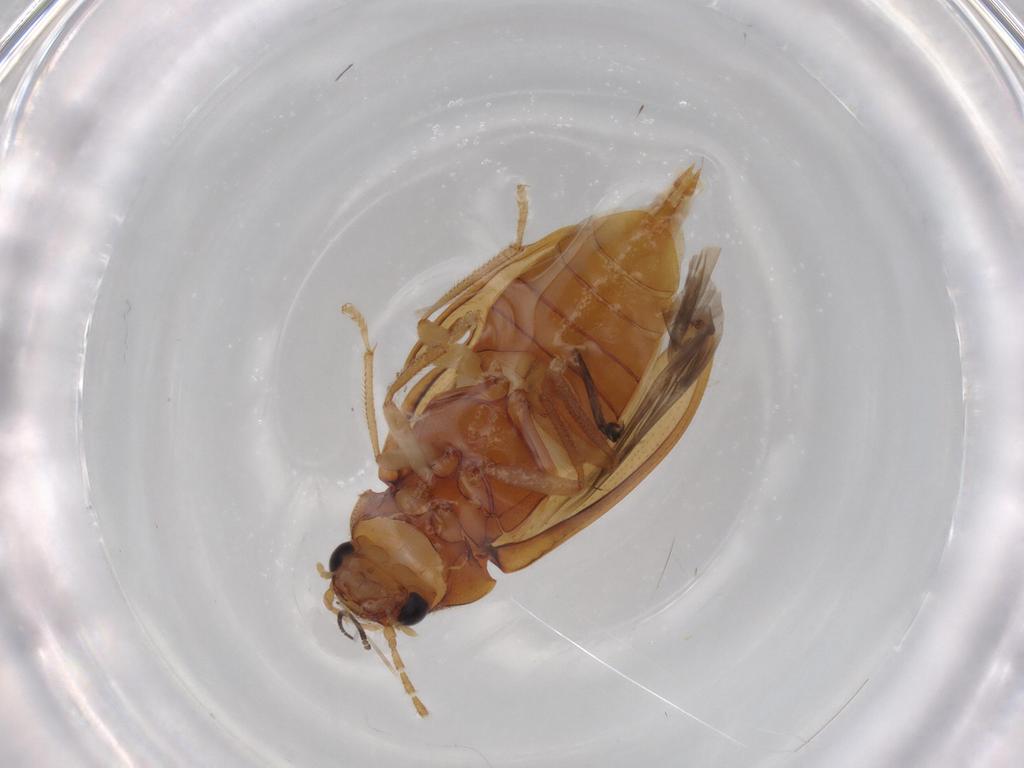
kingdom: Animalia
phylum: Arthropoda
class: Insecta
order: Coleoptera
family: Ptilodactylidae
